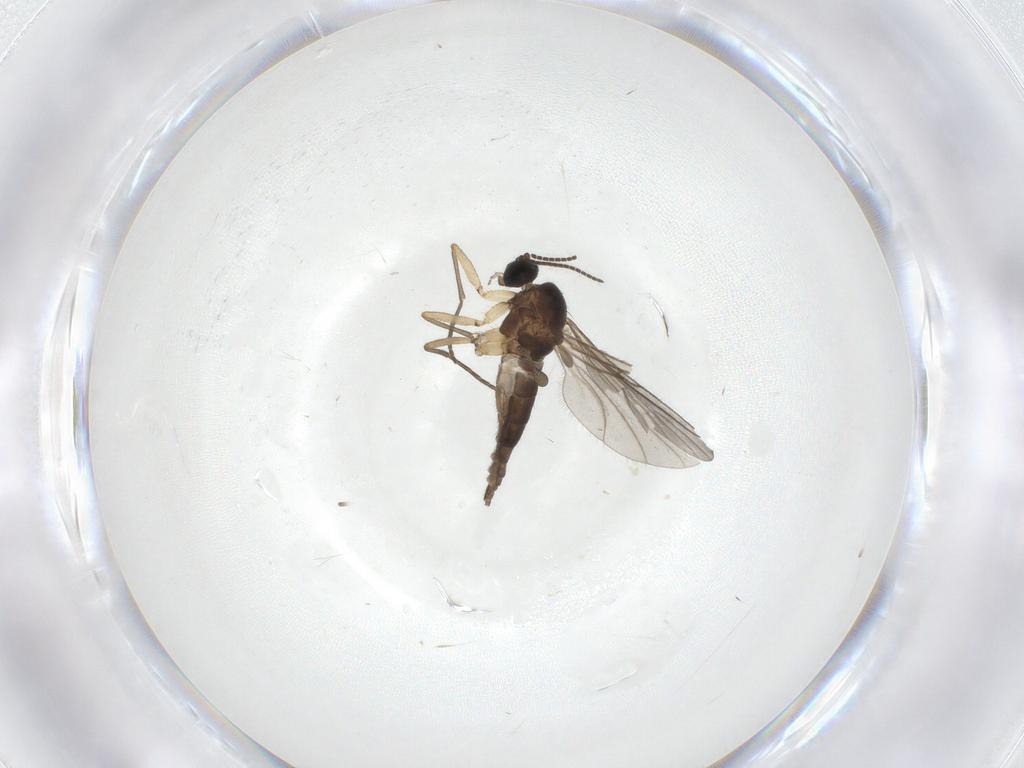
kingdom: Animalia
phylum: Arthropoda
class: Insecta
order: Diptera
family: Sciaridae
